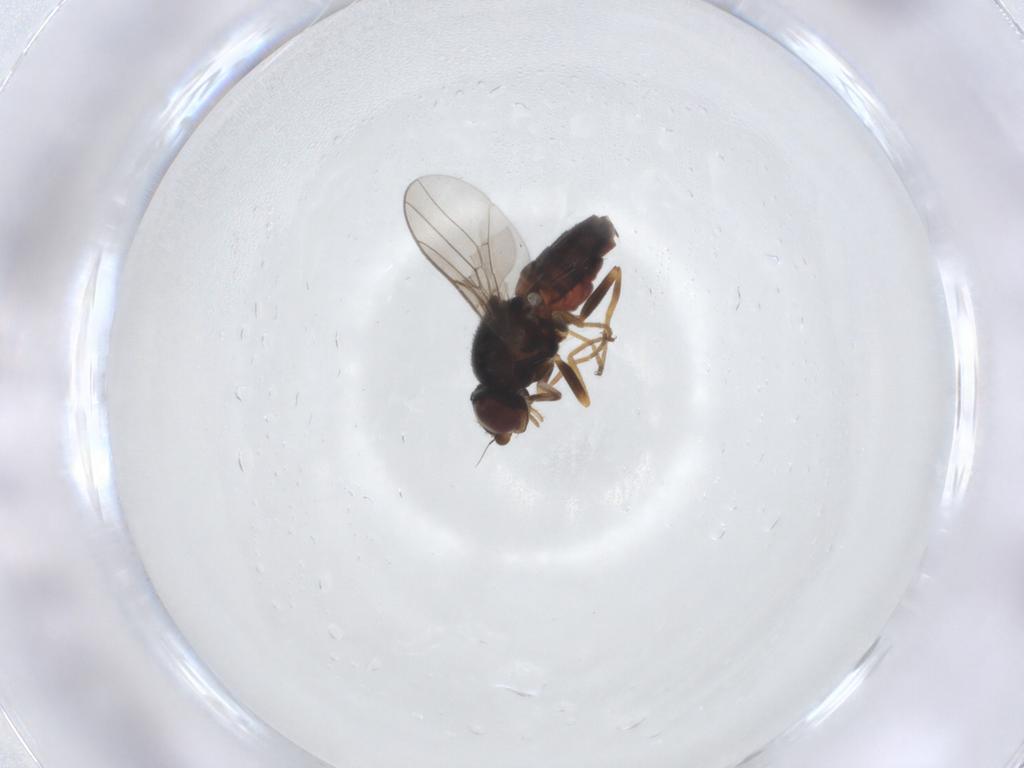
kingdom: Animalia
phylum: Arthropoda
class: Insecta
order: Diptera
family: Chloropidae
